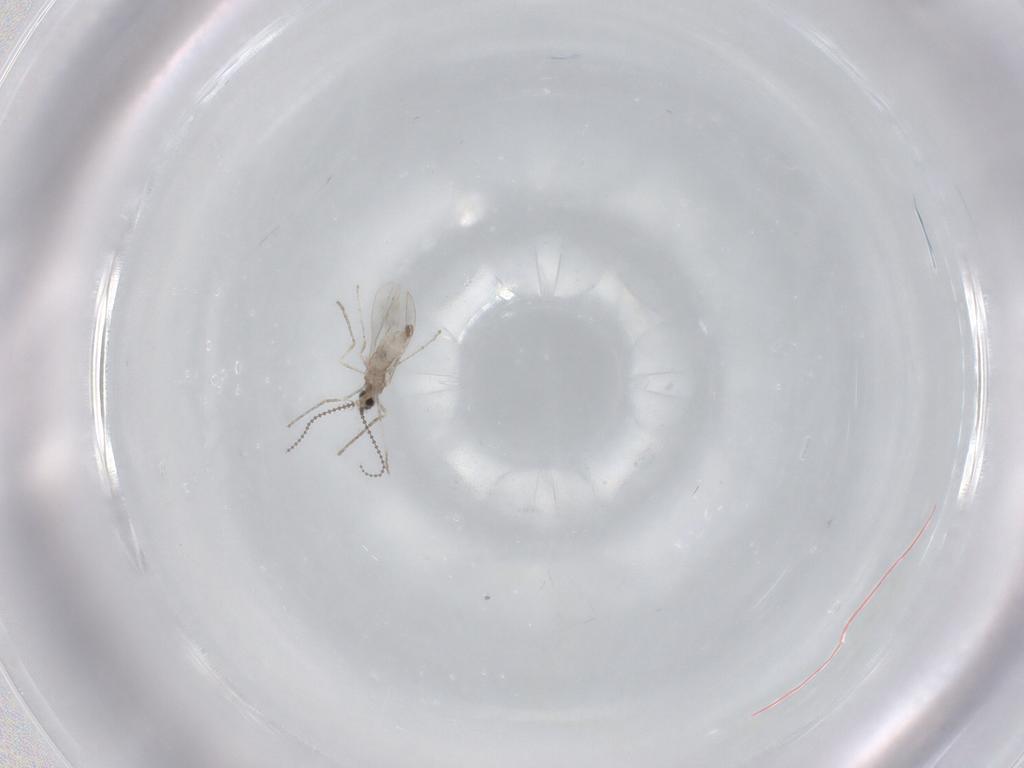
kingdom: Animalia
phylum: Arthropoda
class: Insecta
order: Diptera
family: Cecidomyiidae
